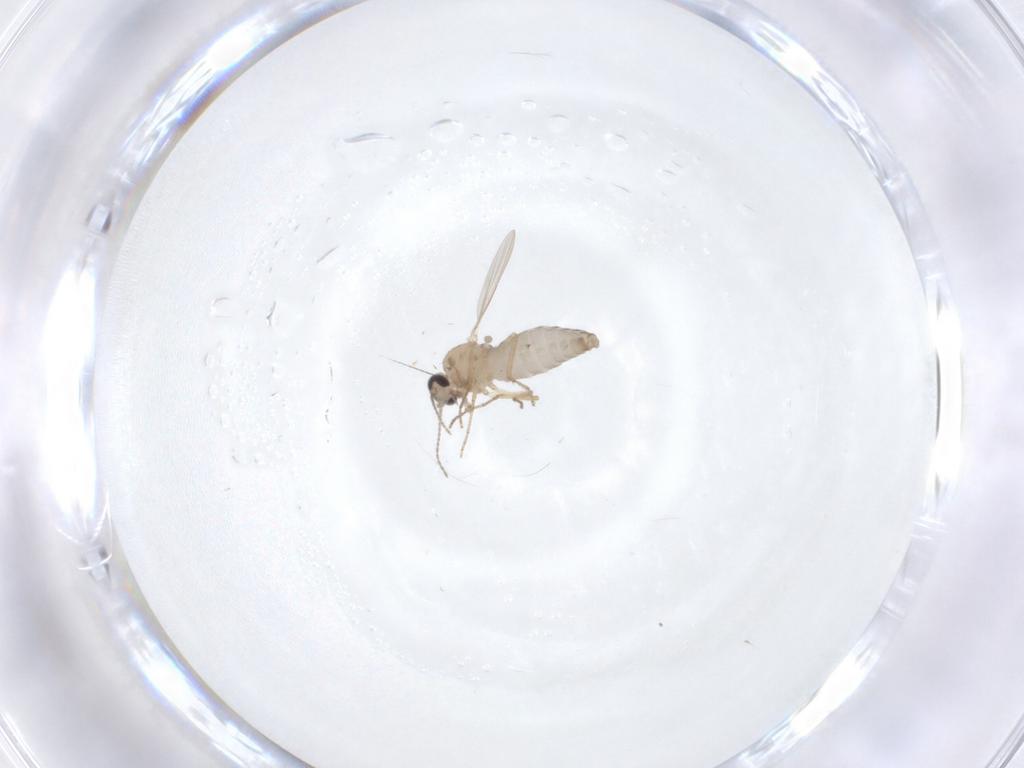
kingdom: Animalia
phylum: Arthropoda
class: Insecta
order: Diptera
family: Ceratopogonidae
